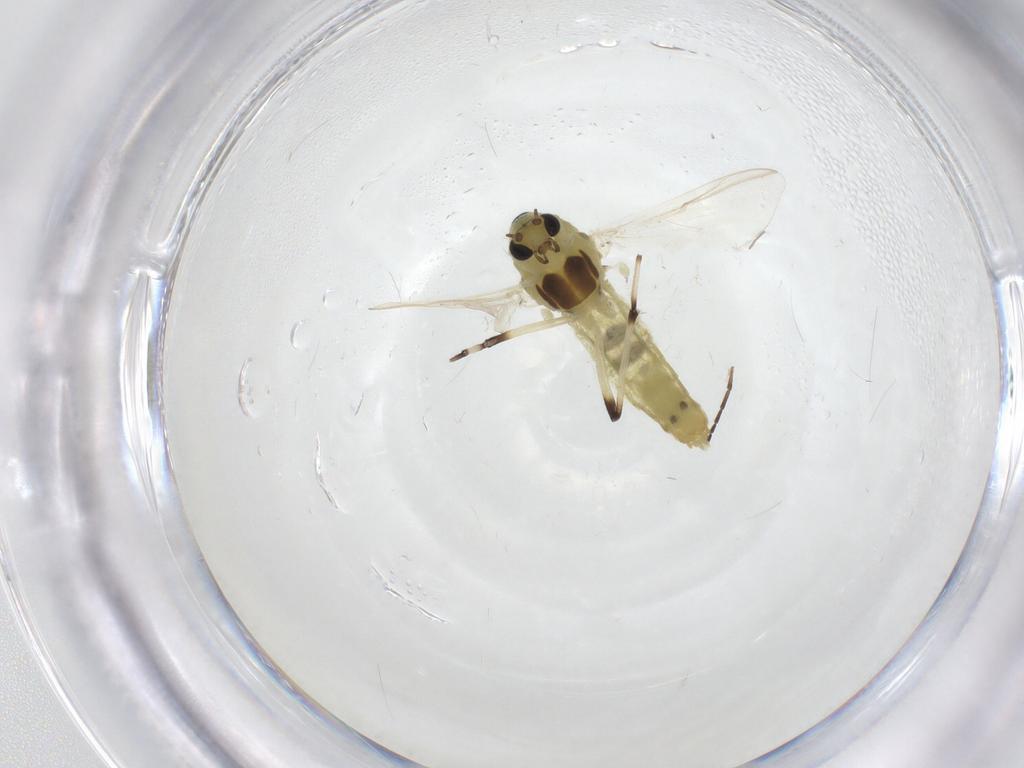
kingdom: Animalia
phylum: Arthropoda
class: Insecta
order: Diptera
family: Chironomidae
